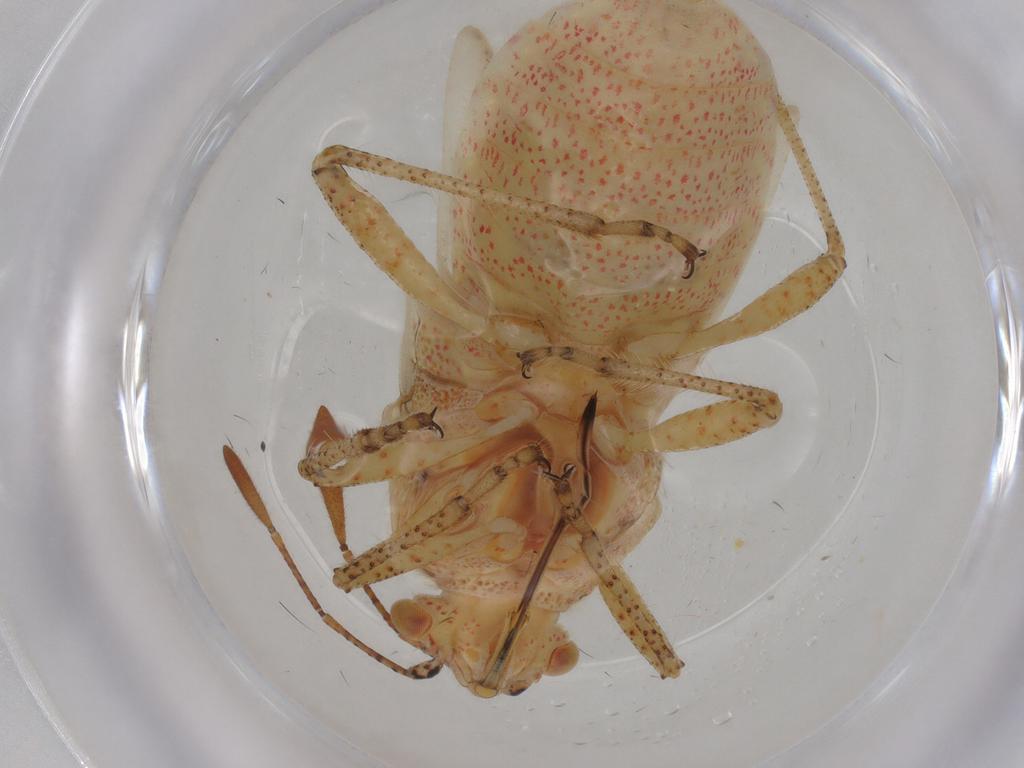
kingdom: Animalia
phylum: Arthropoda
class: Insecta
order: Hemiptera
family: Rhopalidae
